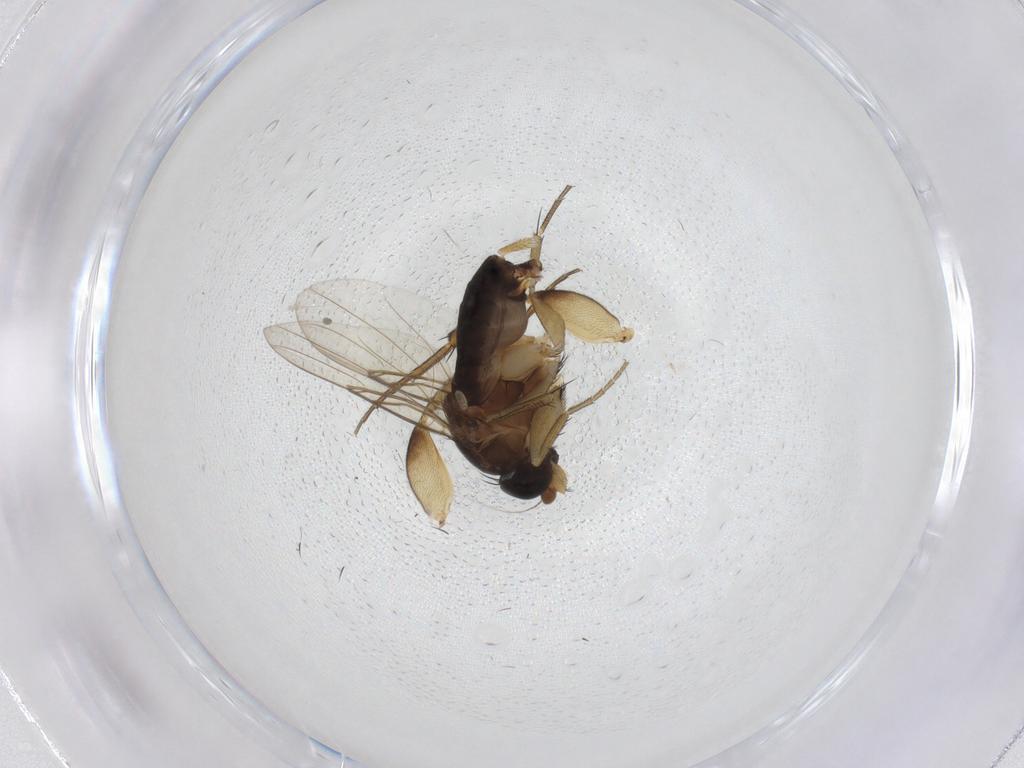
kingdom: Animalia
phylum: Arthropoda
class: Insecta
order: Diptera
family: Phoridae
